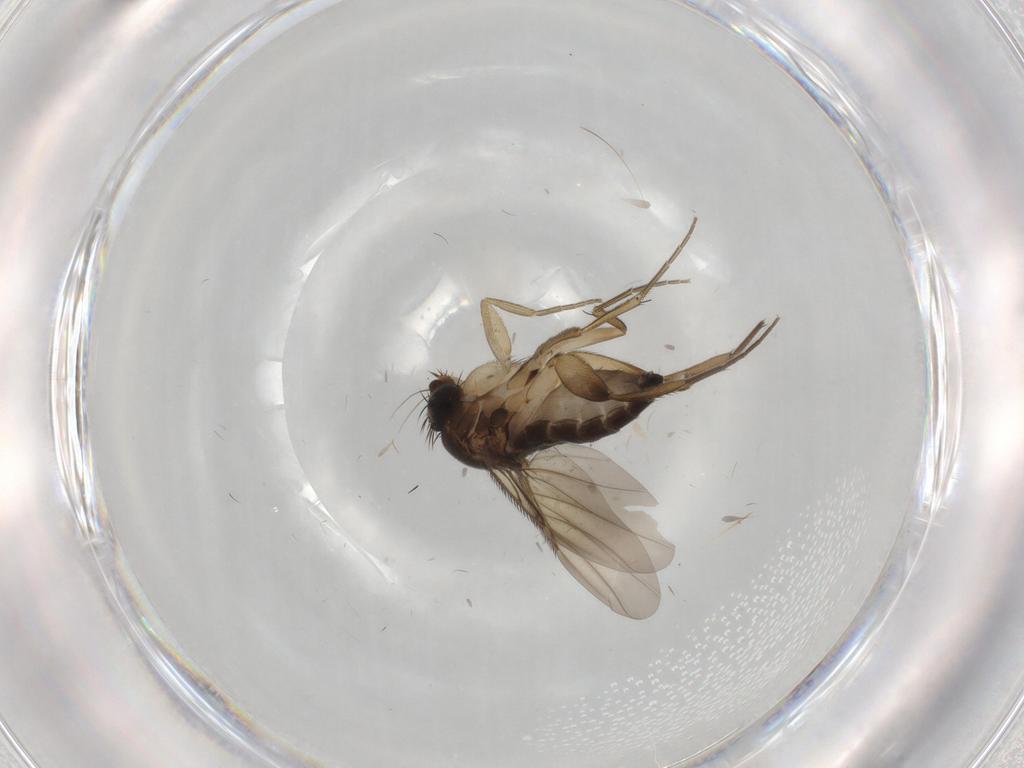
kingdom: Animalia
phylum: Arthropoda
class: Insecta
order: Diptera
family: Phoridae
